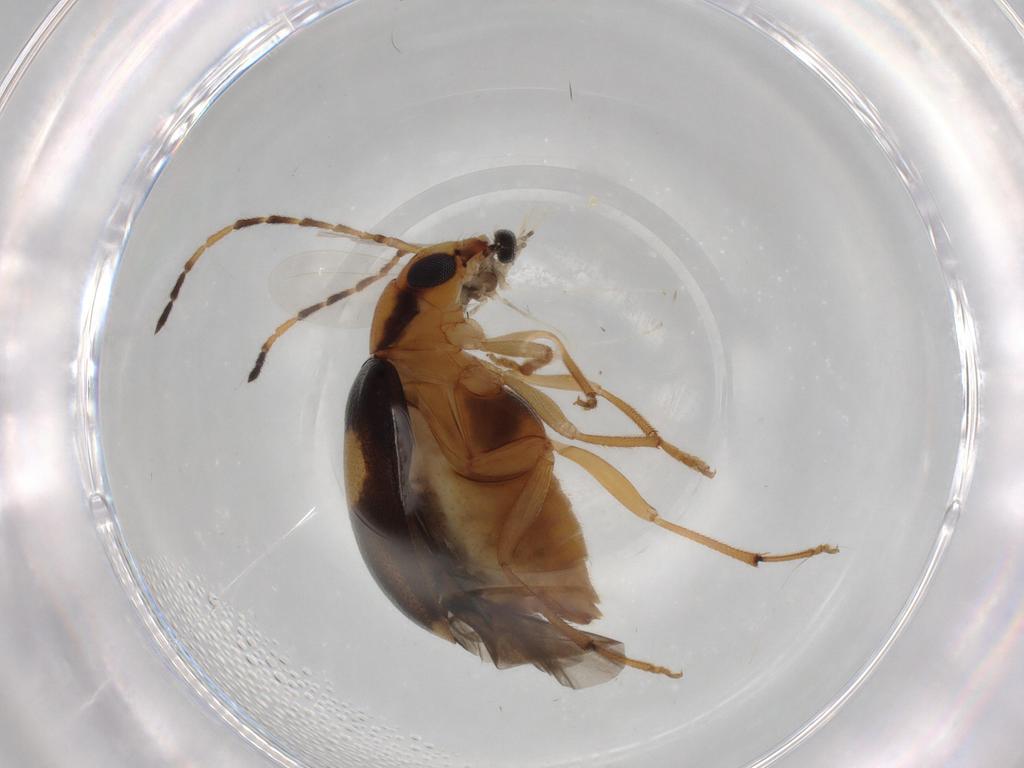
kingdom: Animalia
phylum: Arthropoda
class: Insecta
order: Coleoptera
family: Chrysomelidae
